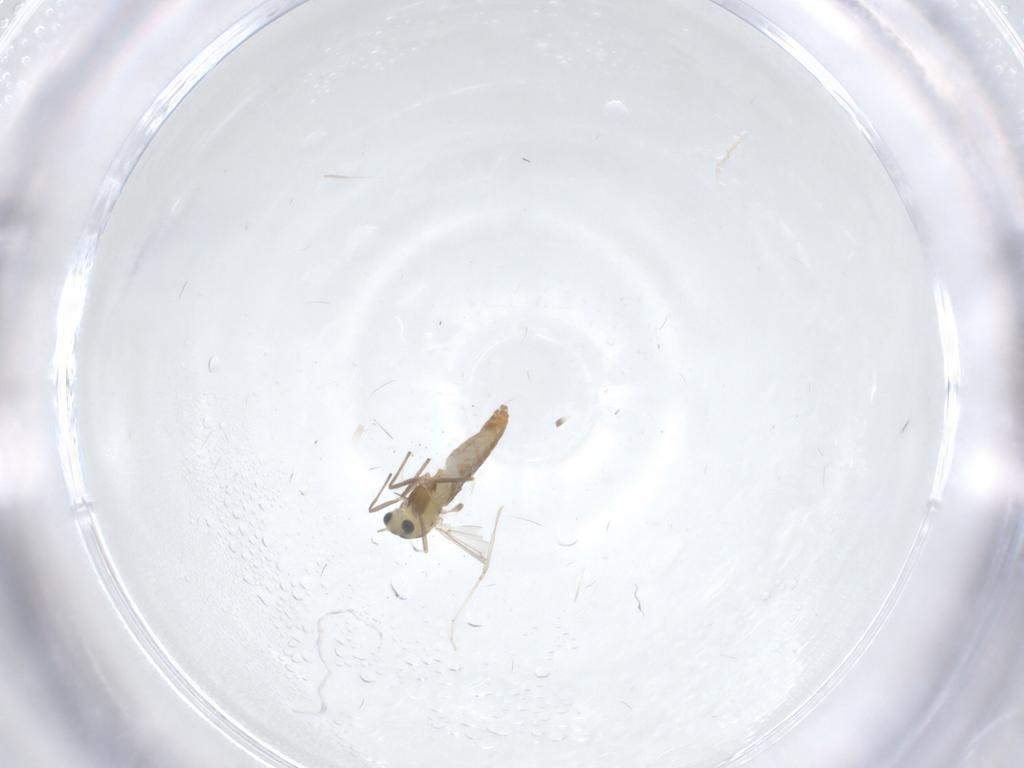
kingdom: Animalia
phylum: Arthropoda
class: Insecta
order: Diptera
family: Chironomidae
